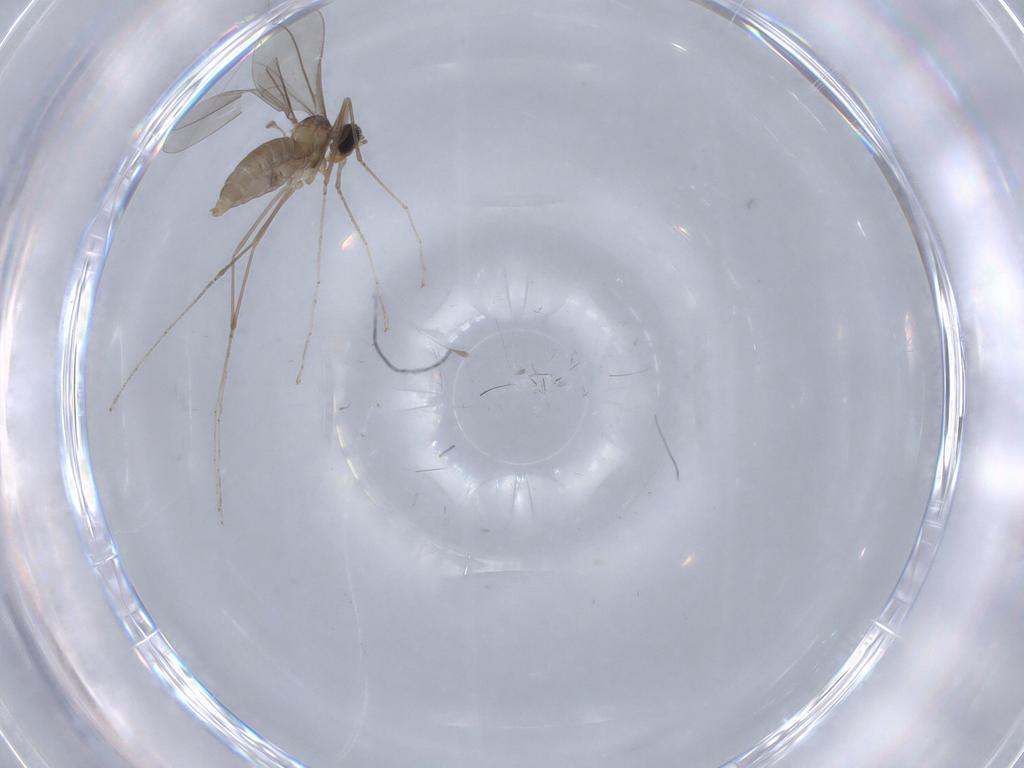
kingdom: Animalia
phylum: Arthropoda
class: Insecta
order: Diptera
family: Cecidomyiidae
